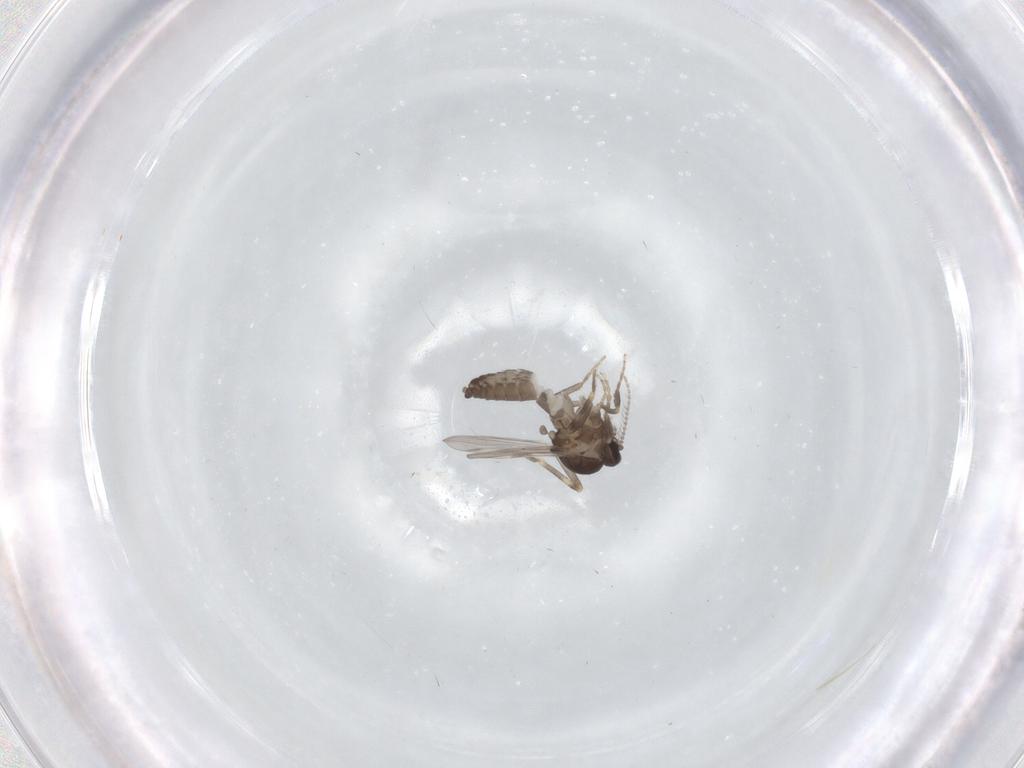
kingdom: Animalia
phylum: Arthropoda
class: Insecta
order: Diptera
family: Ceratopogonidae
